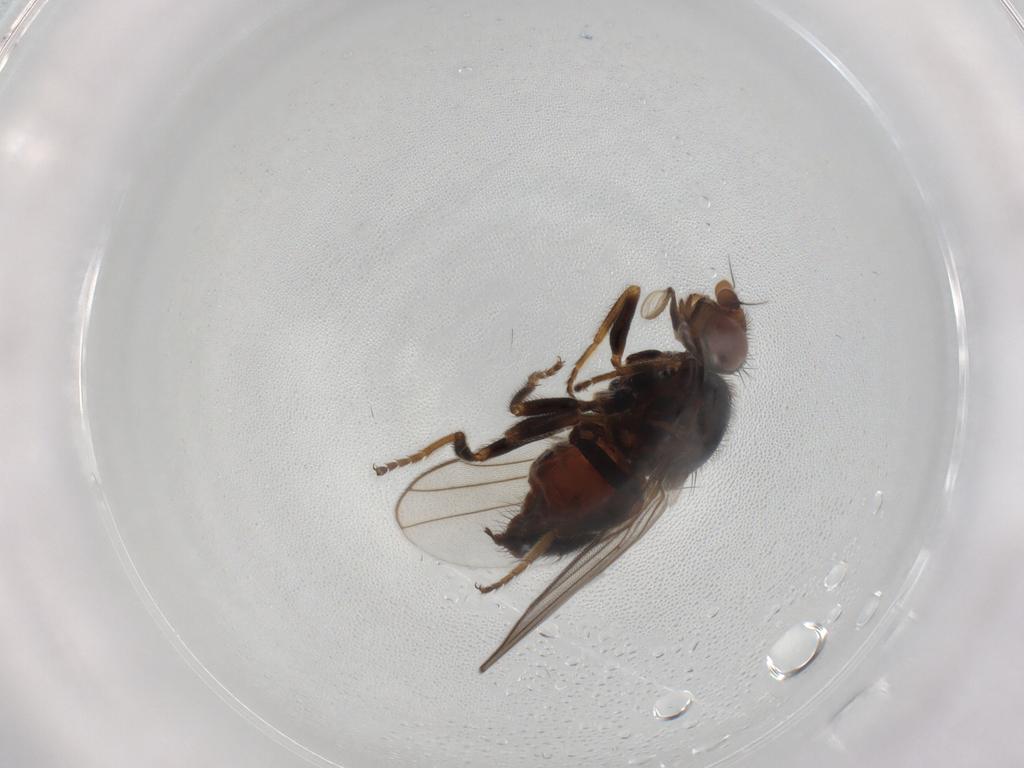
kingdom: Animalia
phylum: Arthropoda
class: Insecta
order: Diptera
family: Chloropidae
